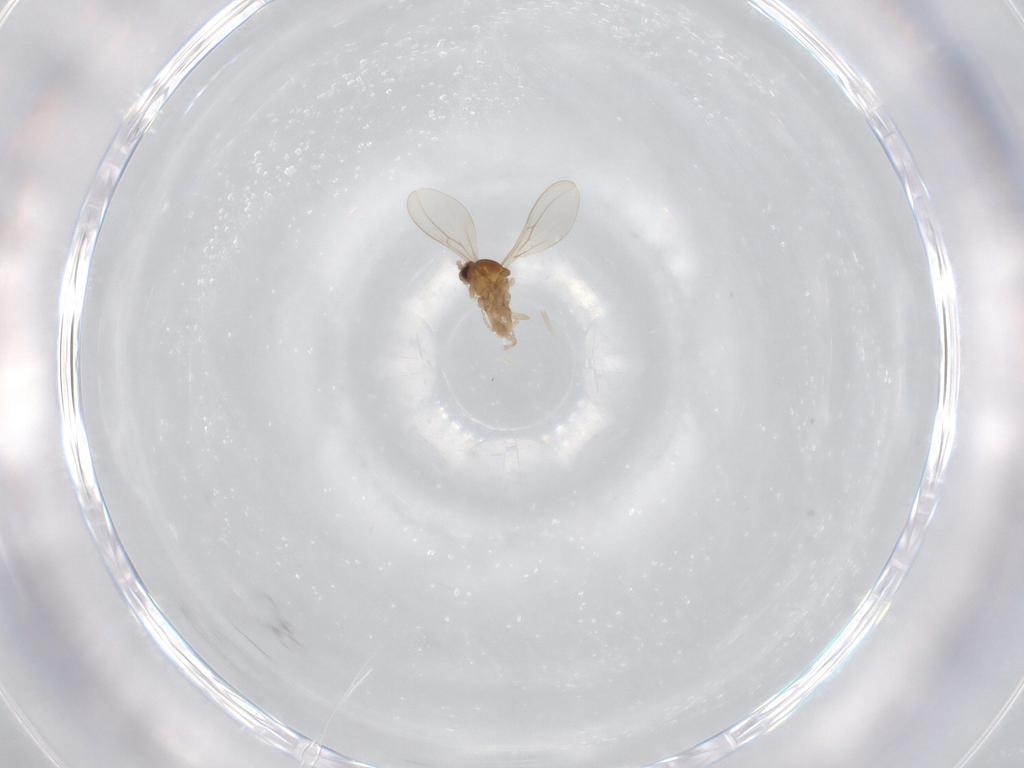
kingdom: Animalia
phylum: Arthropoda
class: Insecta
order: Diptera
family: Cecidomyiidae
